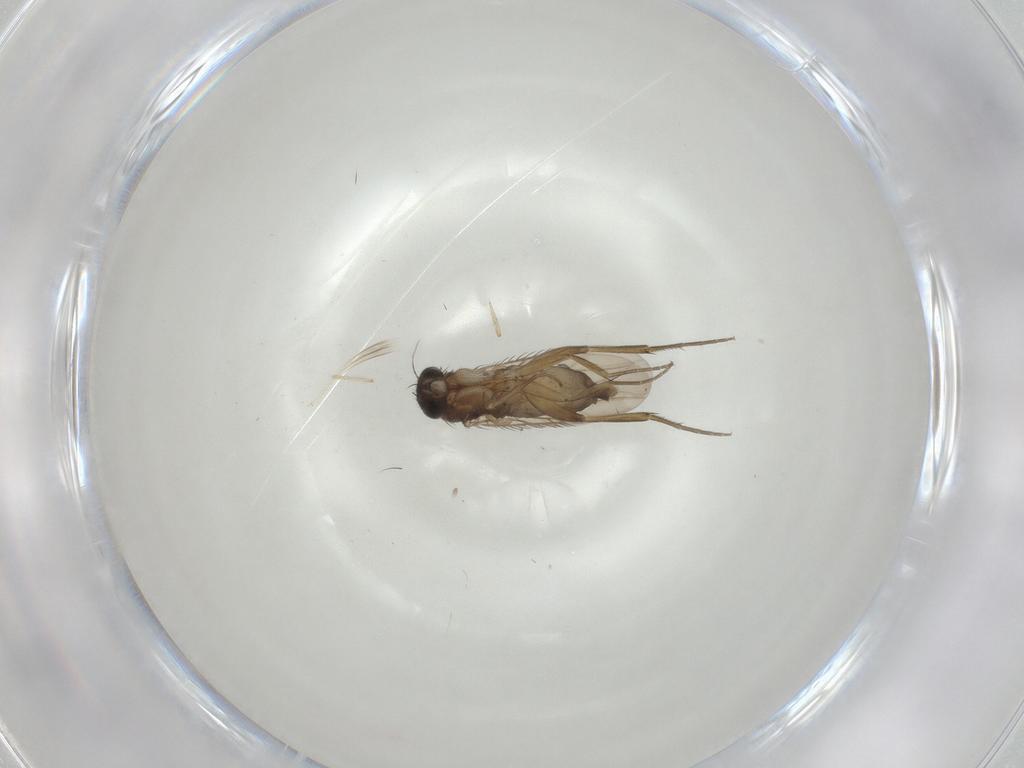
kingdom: Animalia
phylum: Arthropoda
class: Insecta
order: Diptera
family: Phoridae
